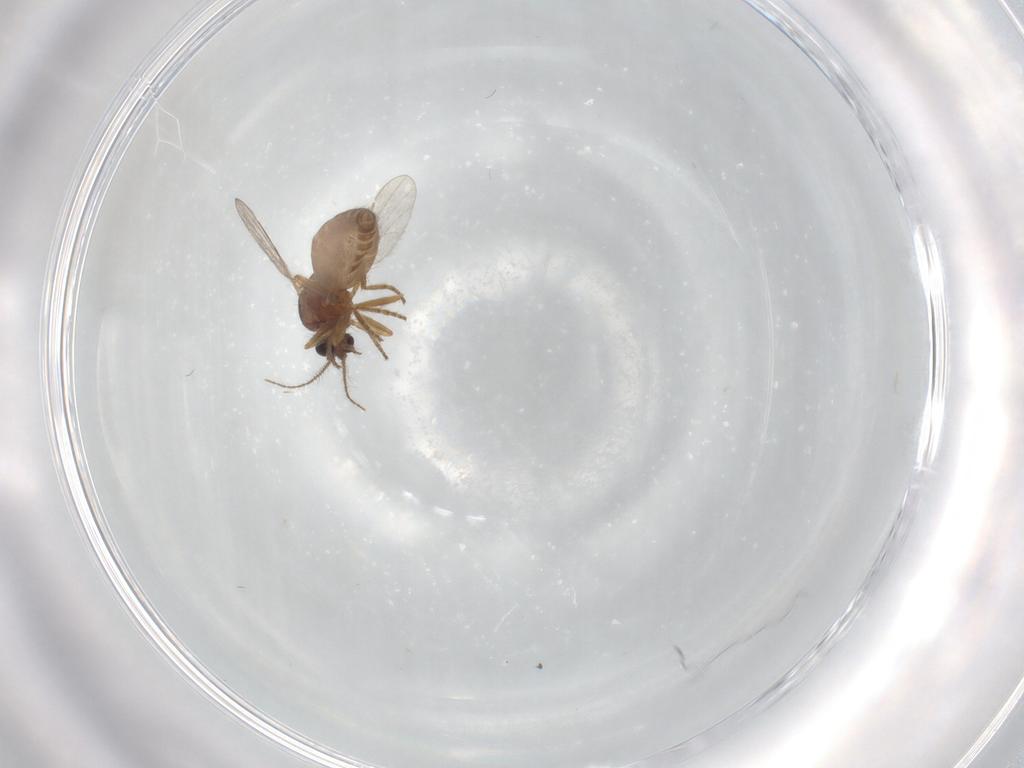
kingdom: Animalia
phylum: Arthropoda
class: Insecta
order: Diptera
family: Ceratopogonidae
